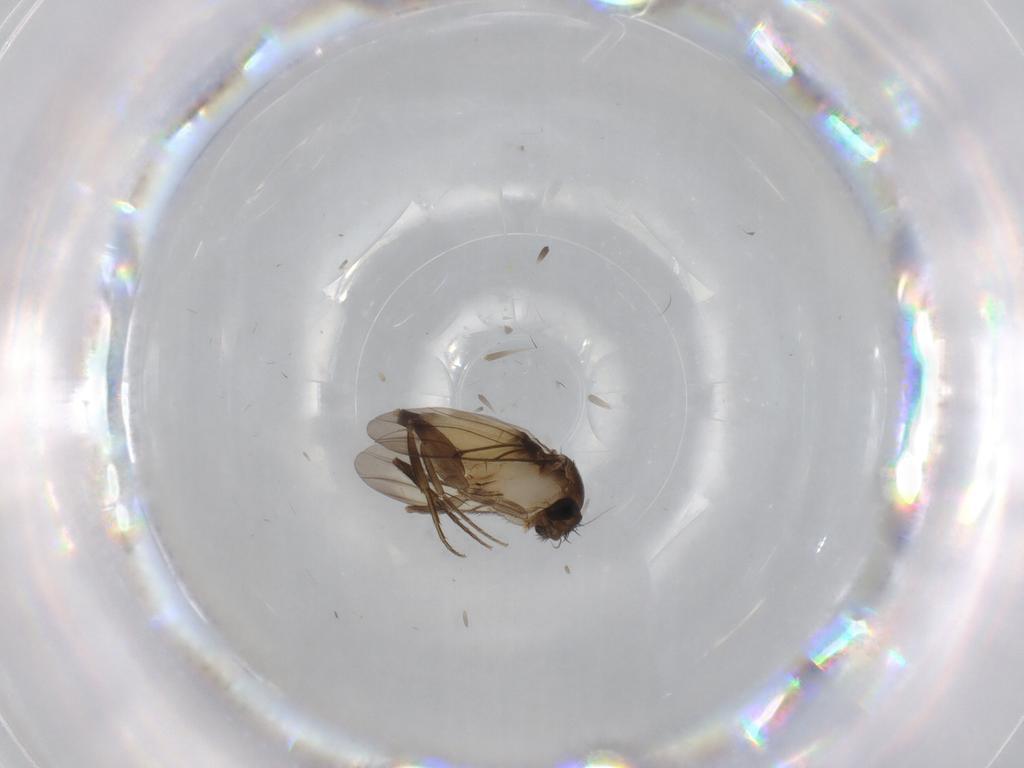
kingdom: Animalia
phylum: Arthropoda
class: Insecta
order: Diptera
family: Phoridae
